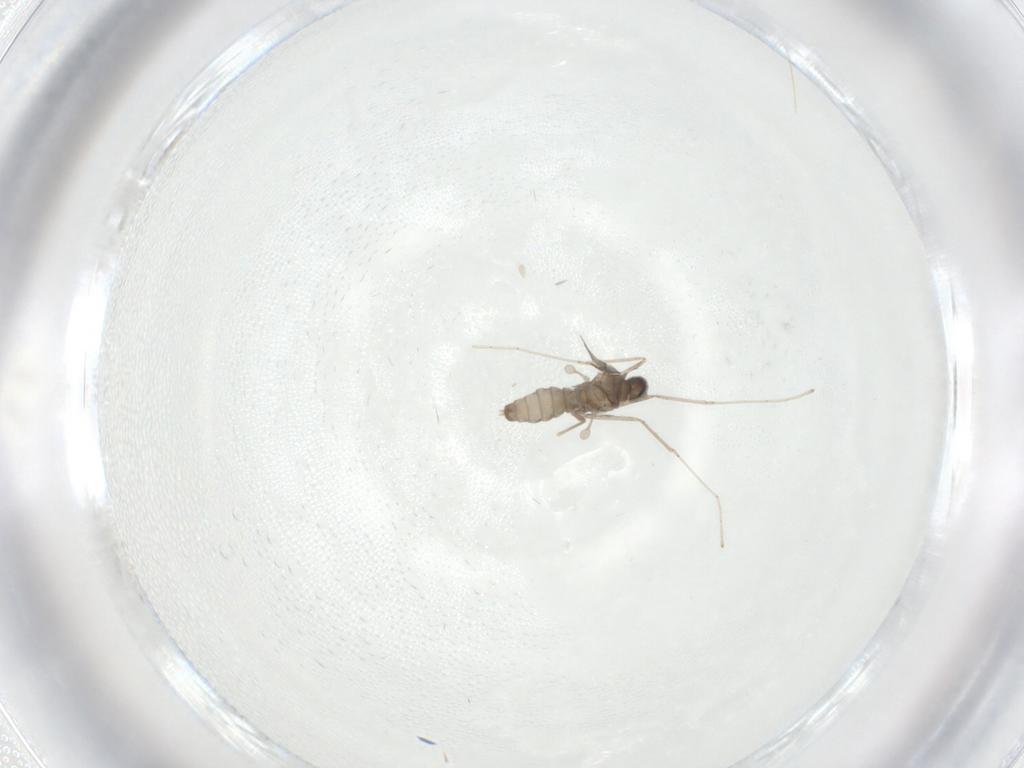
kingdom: Animalia
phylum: Arthropoda
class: Insecta
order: Diptera
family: Cecidomyiidae
